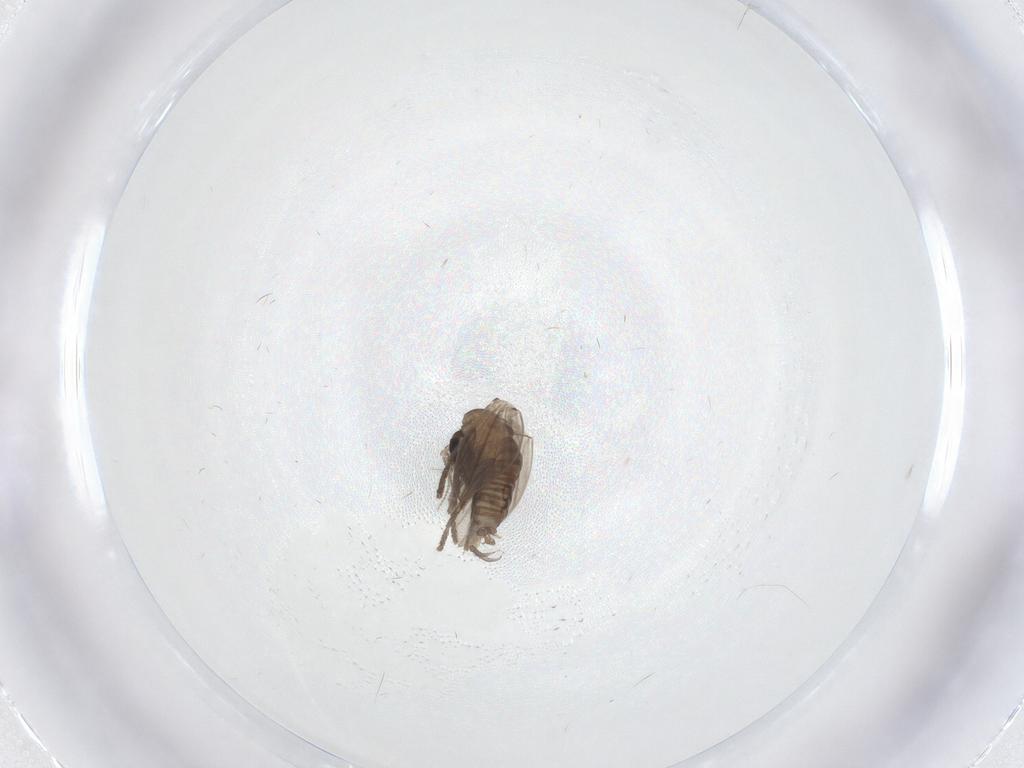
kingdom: Animalia
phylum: Arthropoda
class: Insecta
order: Diptera
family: Psychodidae
